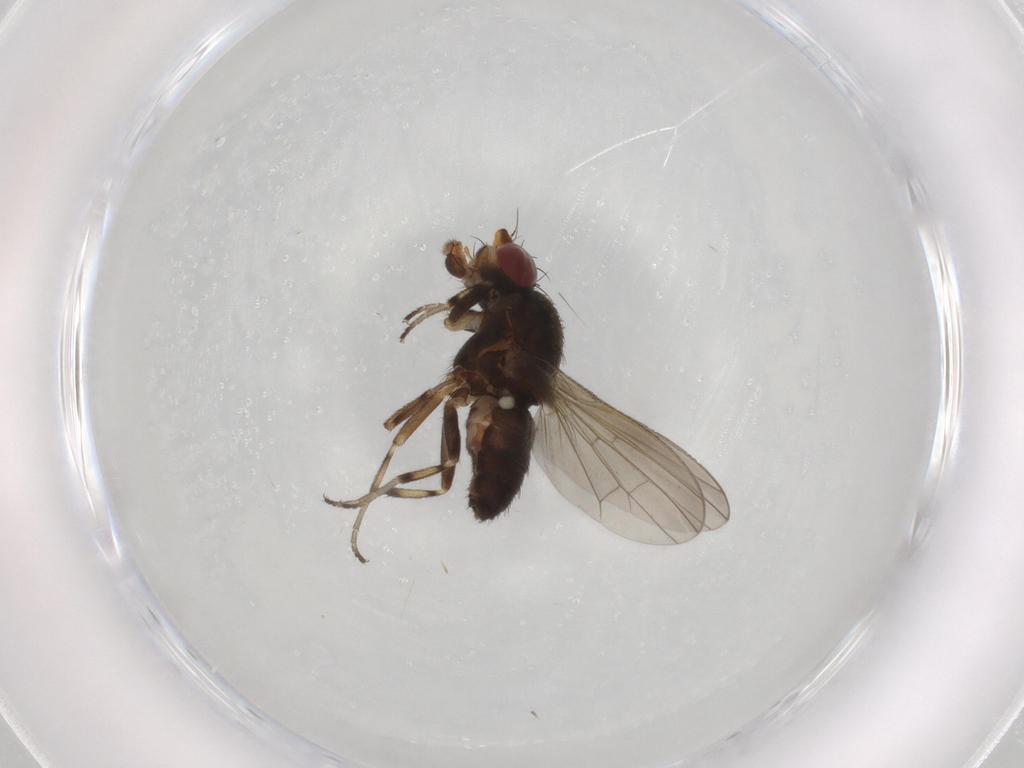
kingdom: Animalia
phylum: Arthropoda
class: Insecta
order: Diptera
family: Heleomyzidae
